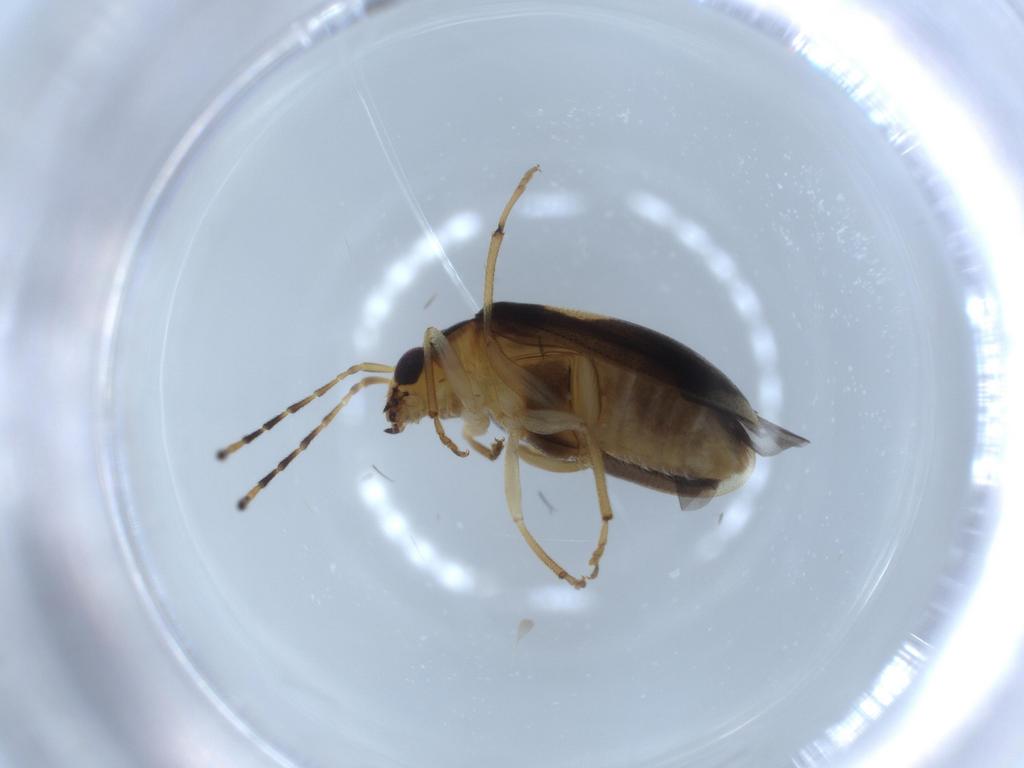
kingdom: Animalia
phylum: Arthropoda
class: Insecta
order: Coleoptera
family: Chrysomelidae
